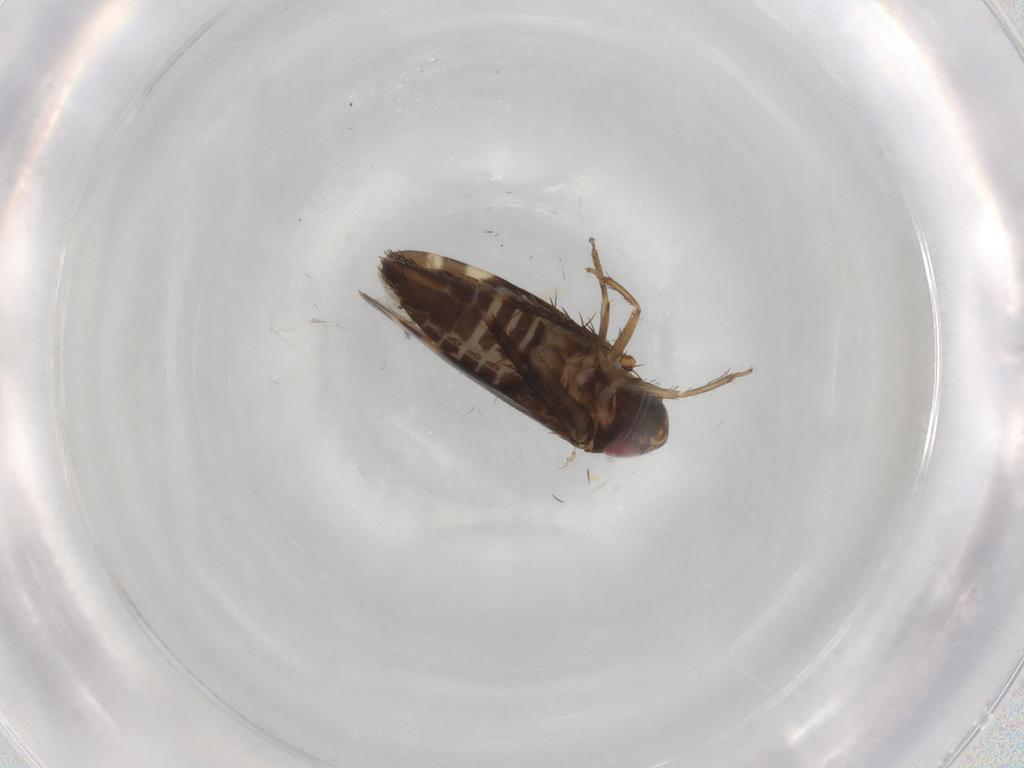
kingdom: Animalia
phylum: Arthropoda
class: Insecta
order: Hemiptera
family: Cicadellidae
